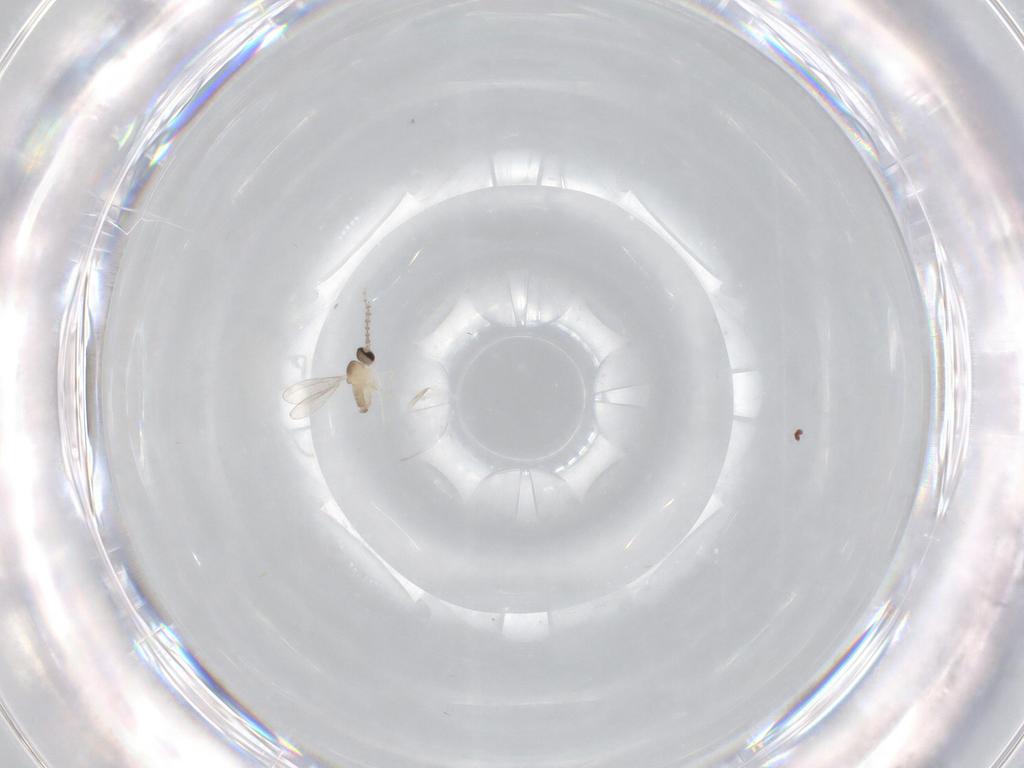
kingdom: Animalia
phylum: Arthropoda
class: Insecta
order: Diptera
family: Cecidomyiidae
